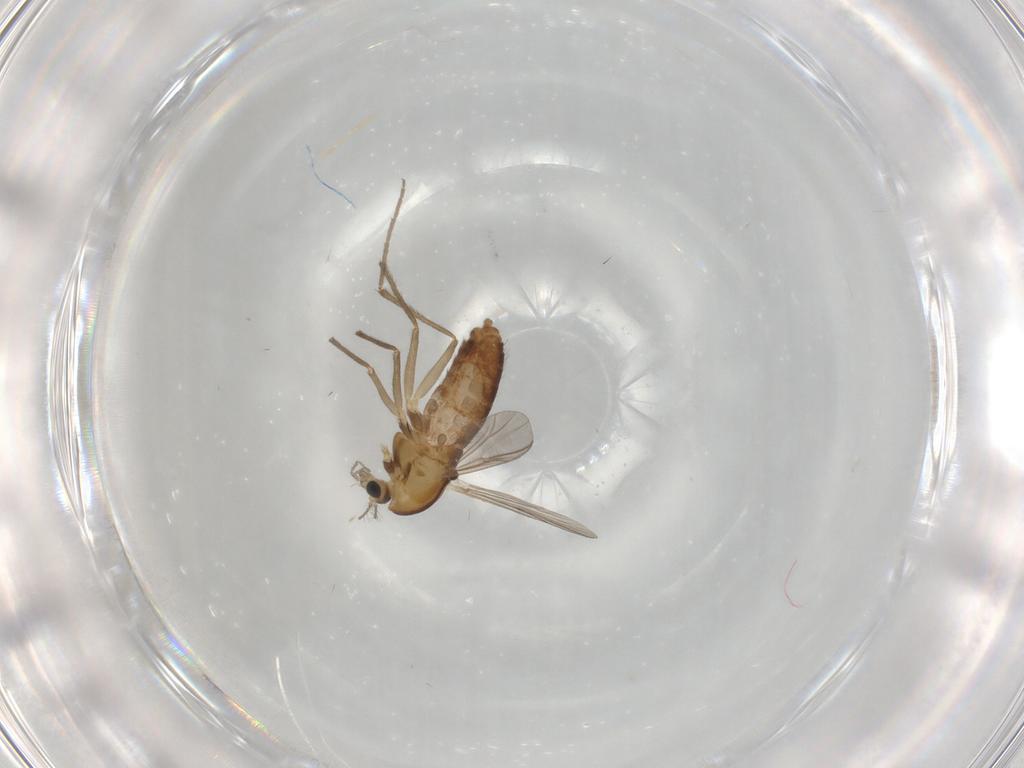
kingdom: Animalia
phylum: Arthropoda
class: Insecta
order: Diptera
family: Chironomidae
